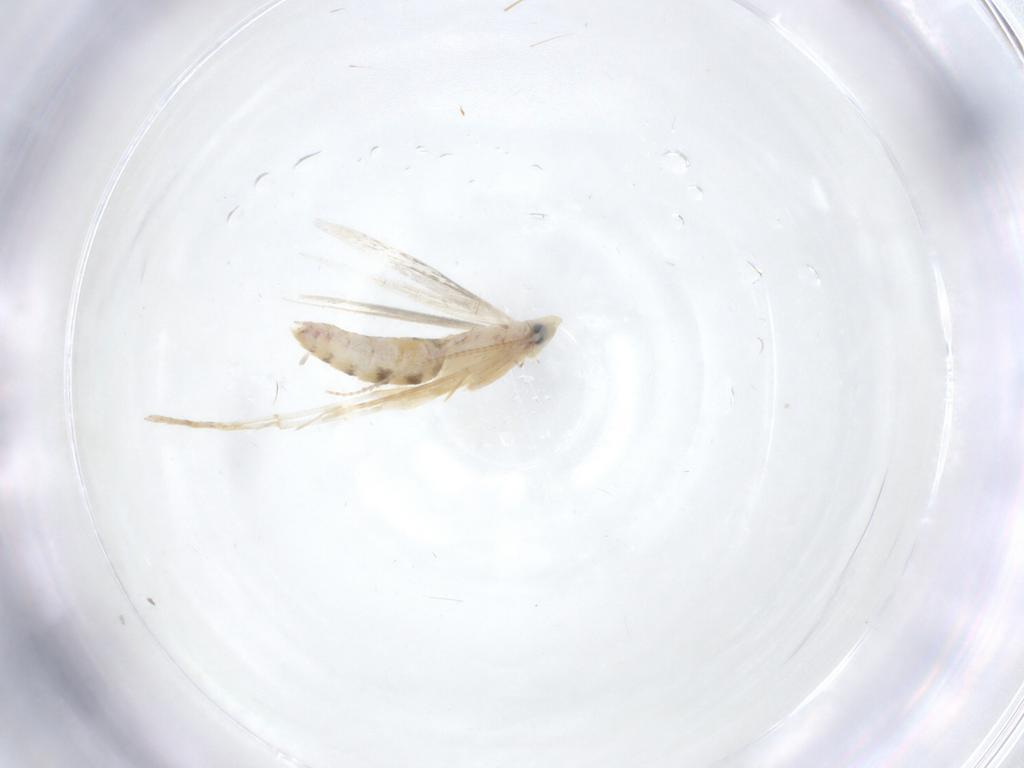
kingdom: Animalia
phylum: Arthropoda
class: Insecta
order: Lepidoptera
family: Tineidae
